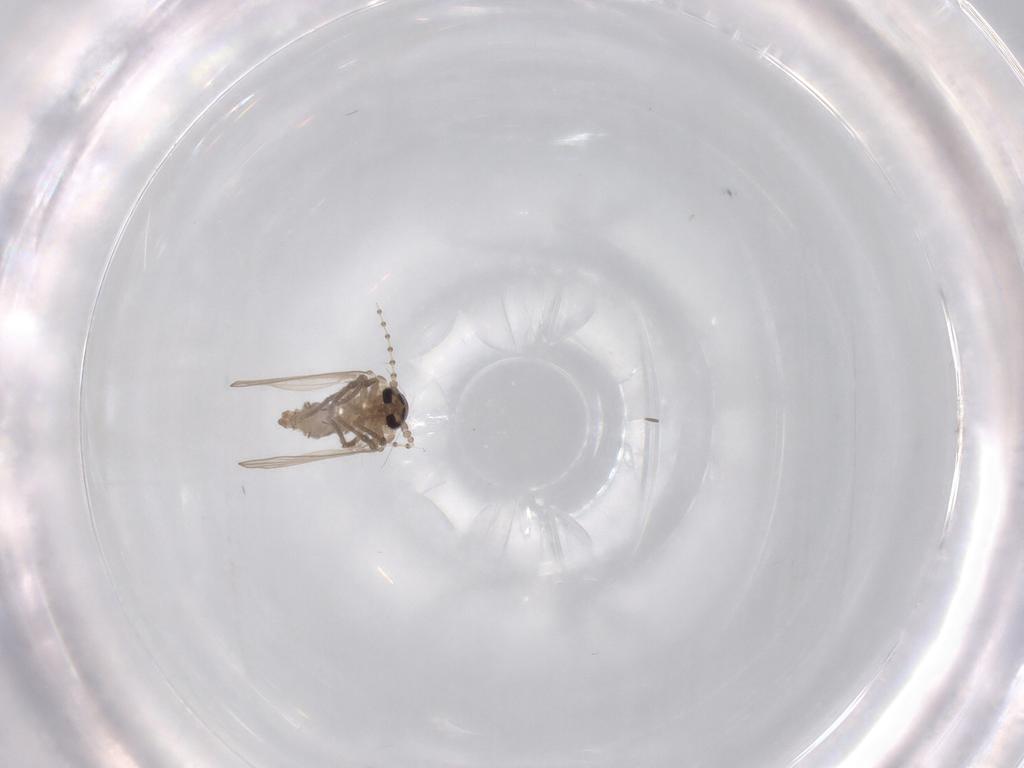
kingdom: Animalia
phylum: Arthropoda
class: Insecta
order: Diptera
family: Psychodidae
